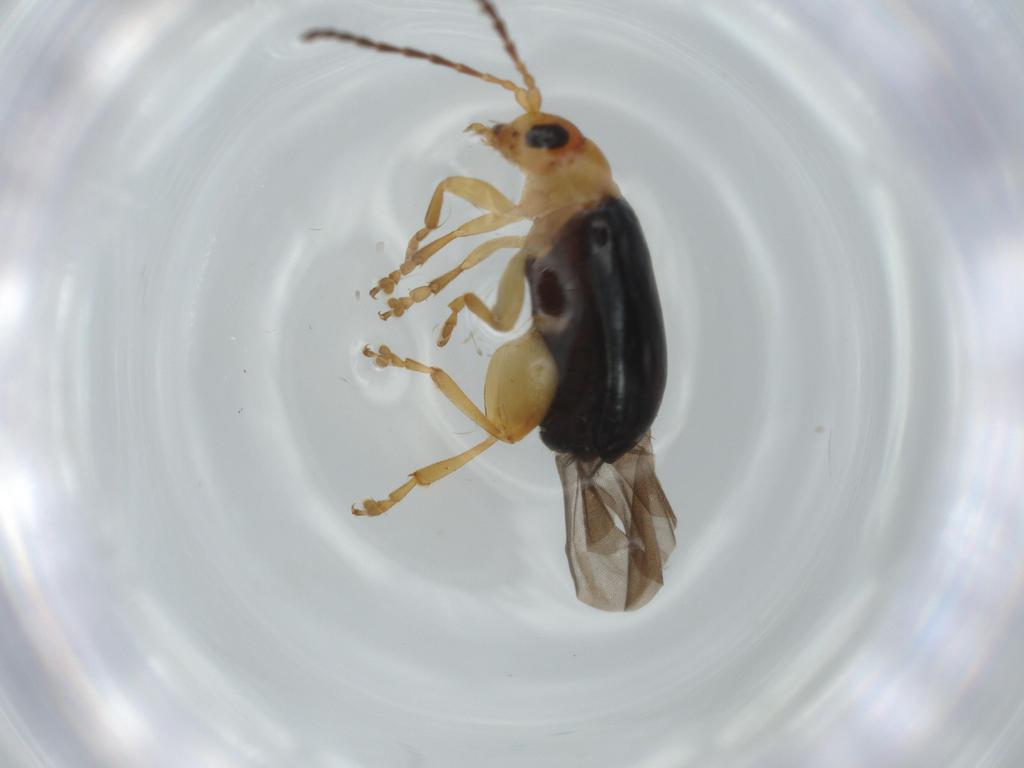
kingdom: Animalia
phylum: Arthropoda
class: Insecta
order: Coleoptera
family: Chrysomelidae
